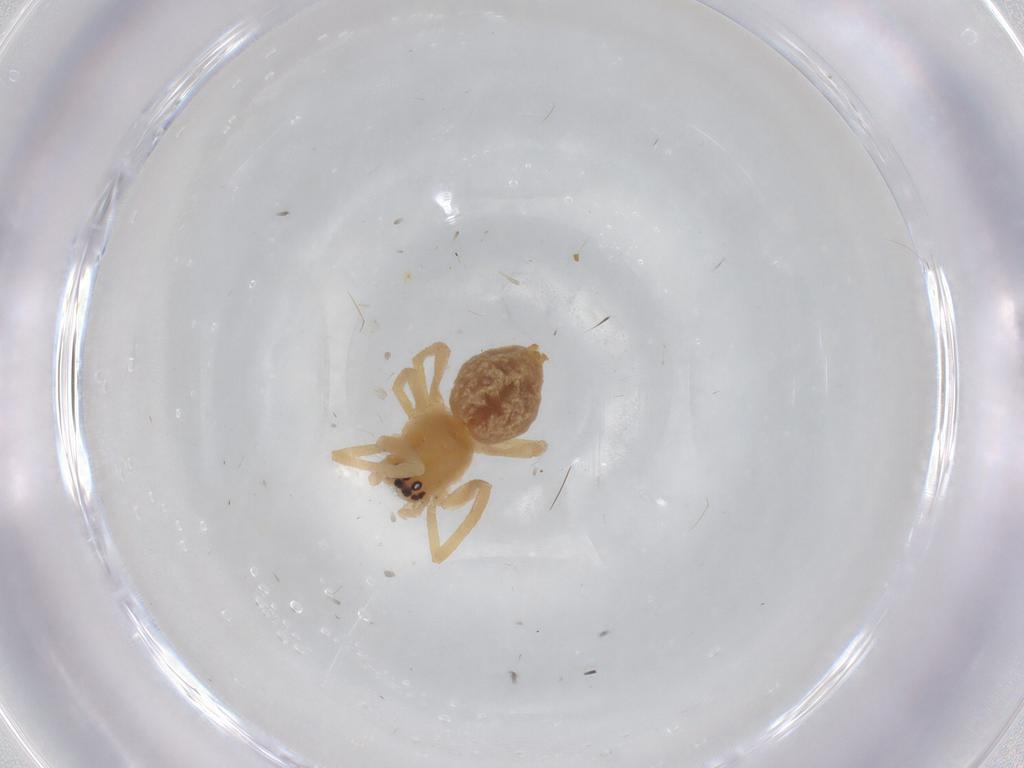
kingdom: Animalia
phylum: Arthropoda
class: Arachnida
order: Araneae
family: Cheiracanthiidae
